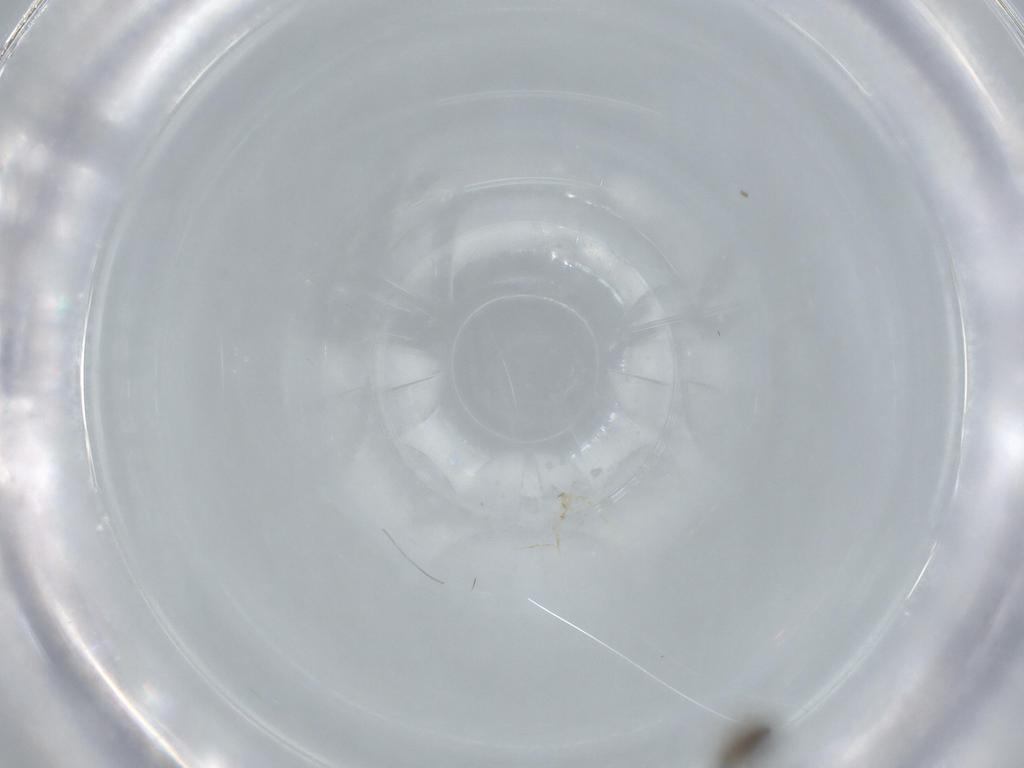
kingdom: Animalia
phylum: Arthropoda
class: Insecta
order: Diptera
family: Cecidomyiidae
